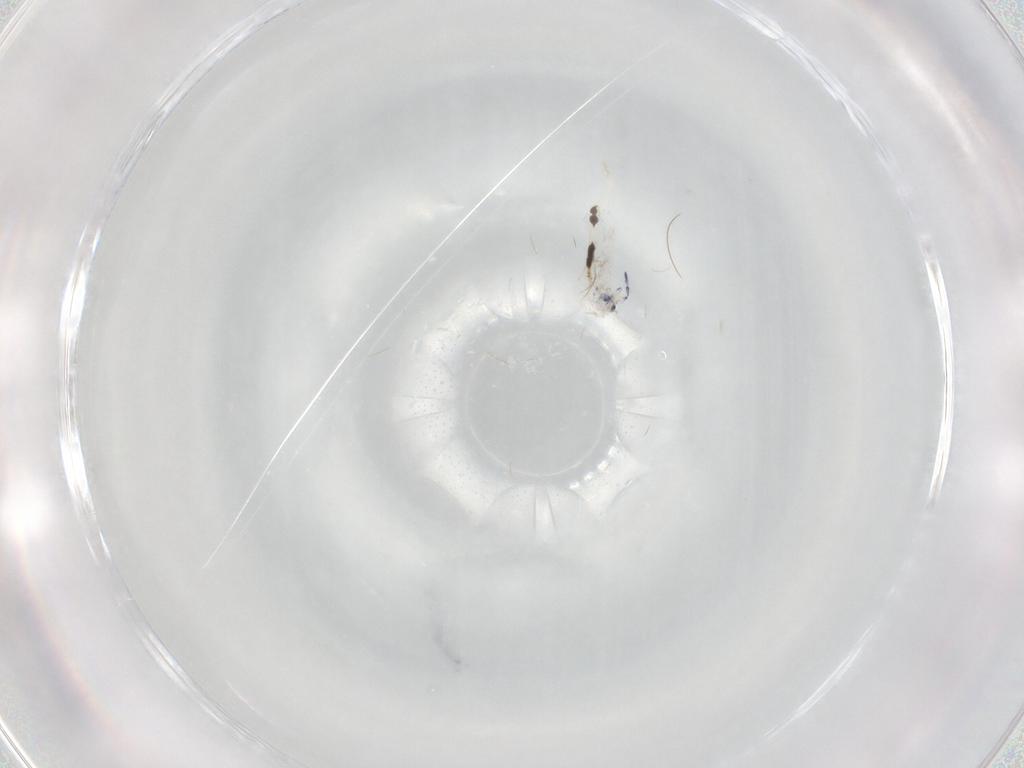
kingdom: Animalia
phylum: Arthropoda
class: Collembola
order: Entomobryomorpha
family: Entomobryidae
